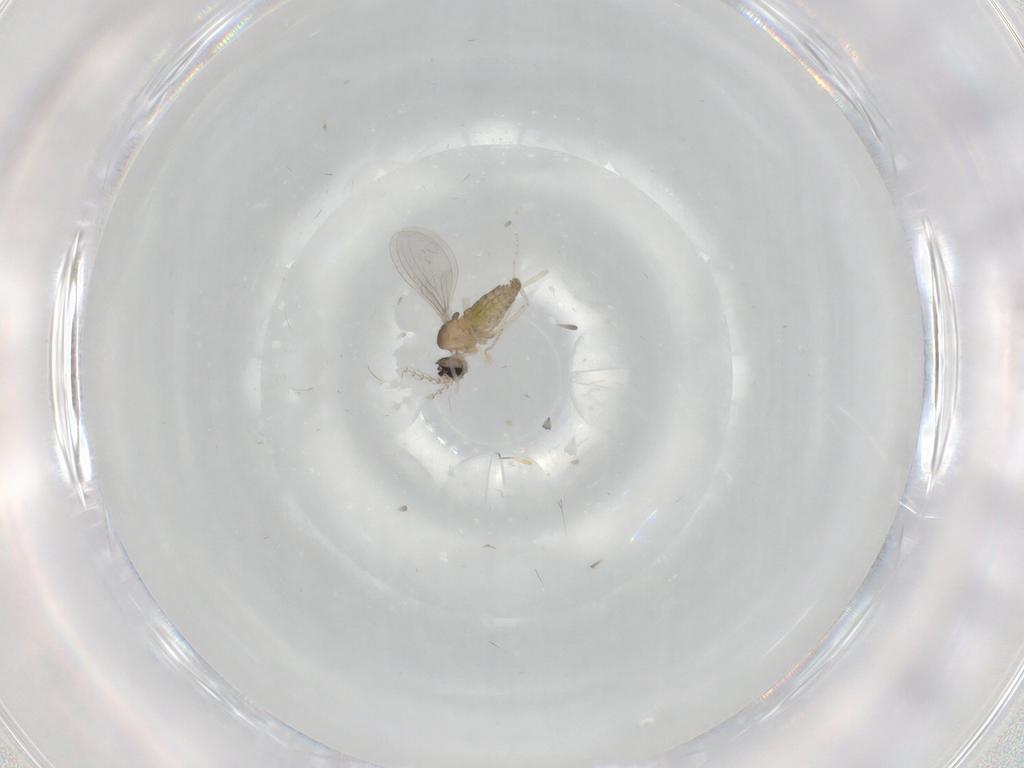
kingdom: Animalia
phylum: Arthropoda
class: Insecta
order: Diptera
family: Cecidomyiidae
